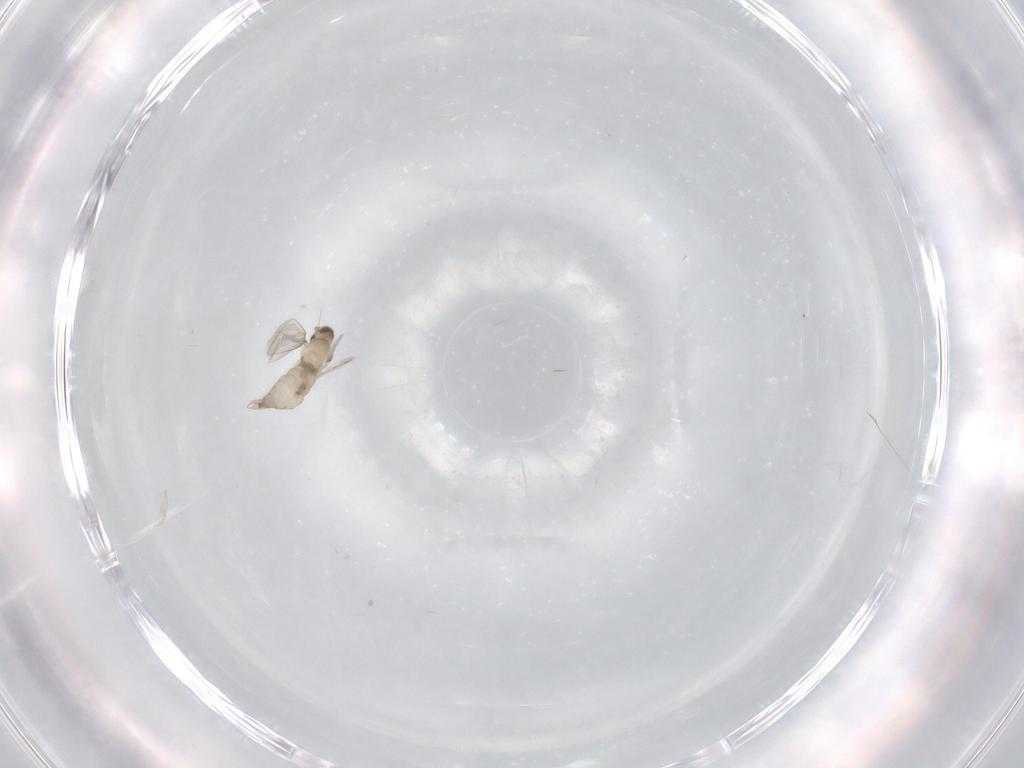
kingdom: Animalia
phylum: Arthropoda
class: Insecta
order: Diptera
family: Cecidomyiidae
